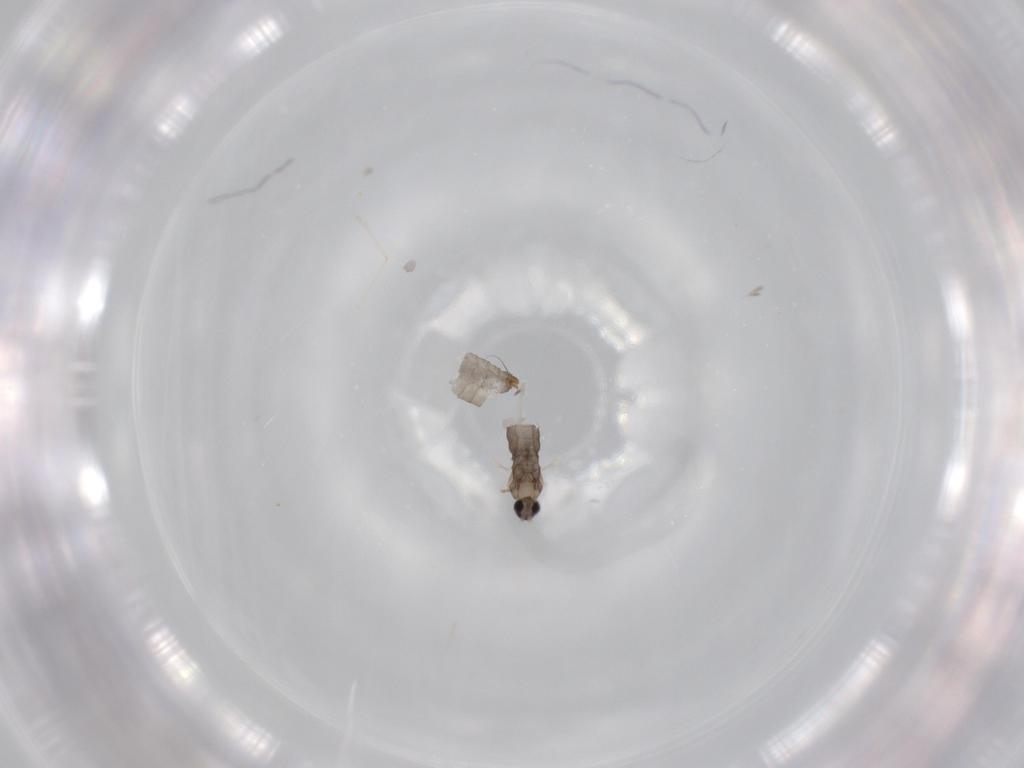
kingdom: Animalia
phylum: Arthropoda
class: Insecta
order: Diptera
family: Cecidomyiidae
